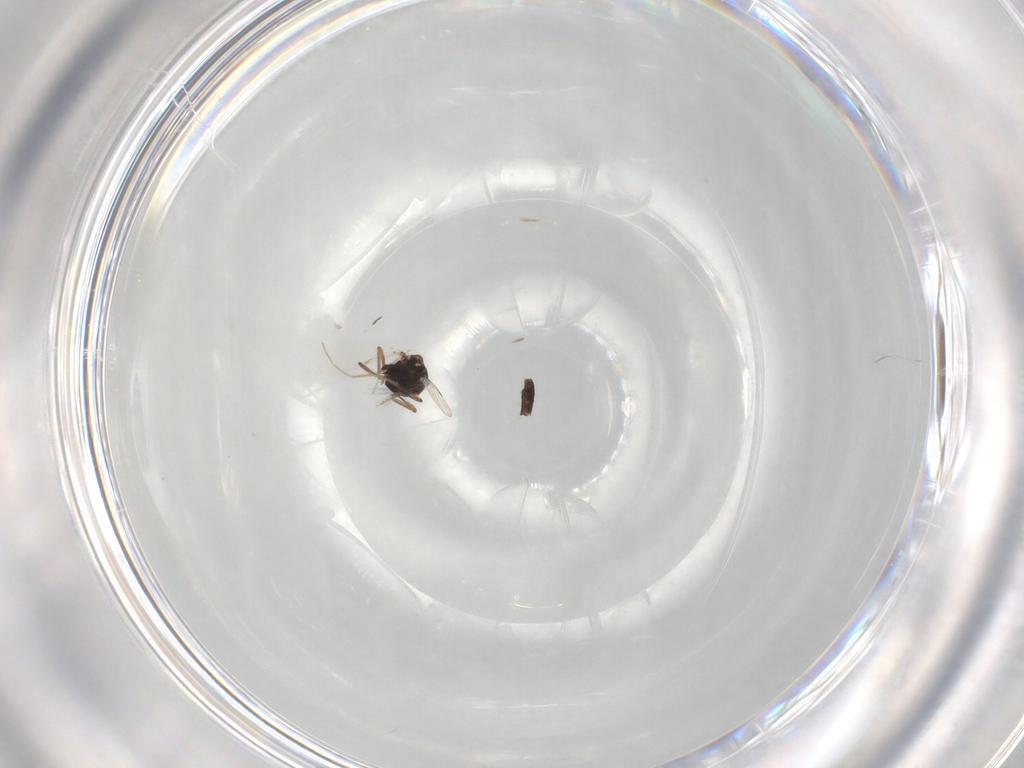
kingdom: Animalia
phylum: Arthropoda
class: Insecta
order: Diptera
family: Ceratopogonidae
